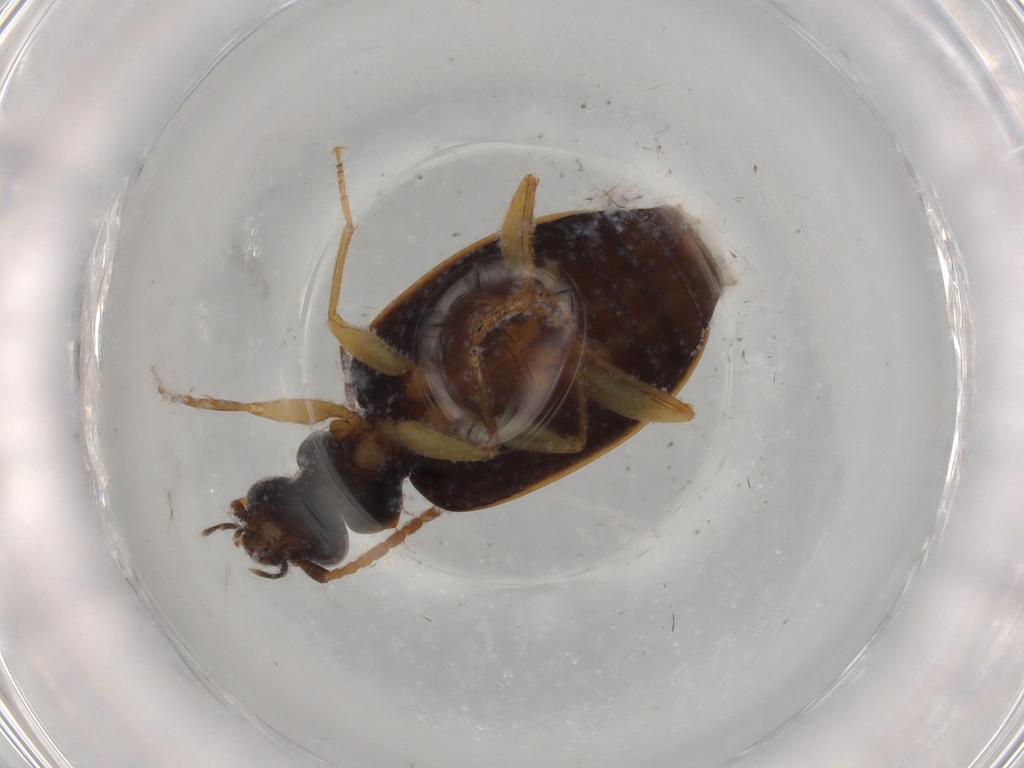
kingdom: Animalia
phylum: Arthropoda
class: Insecta
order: Coleoptera
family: Carabidae
